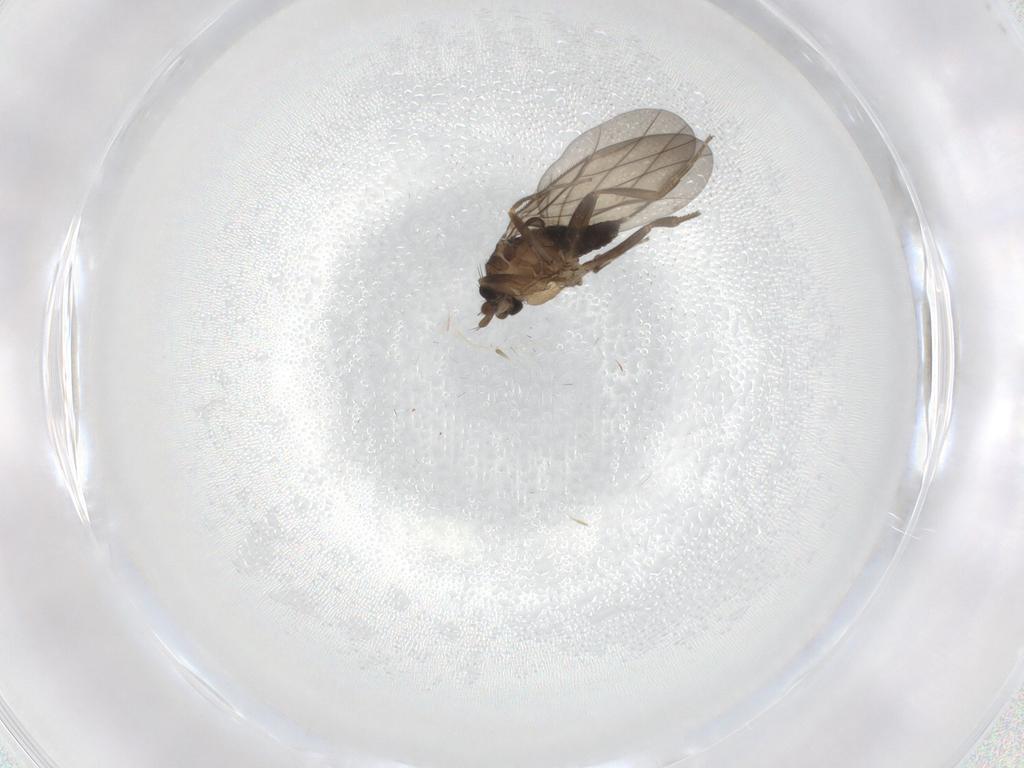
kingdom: Animalia
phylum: Arthropoda
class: Insecta
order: Diptera
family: Phoridae
